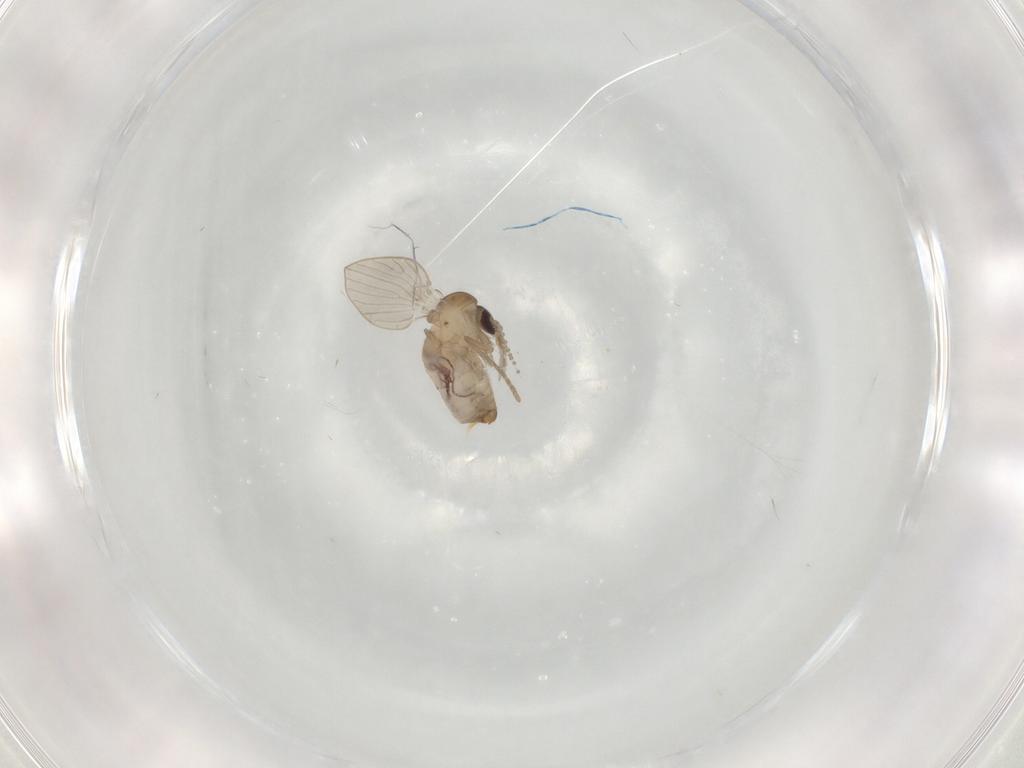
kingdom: Animalia
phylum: Arthropoda
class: Insecta
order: Diptera
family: Psychodidae
